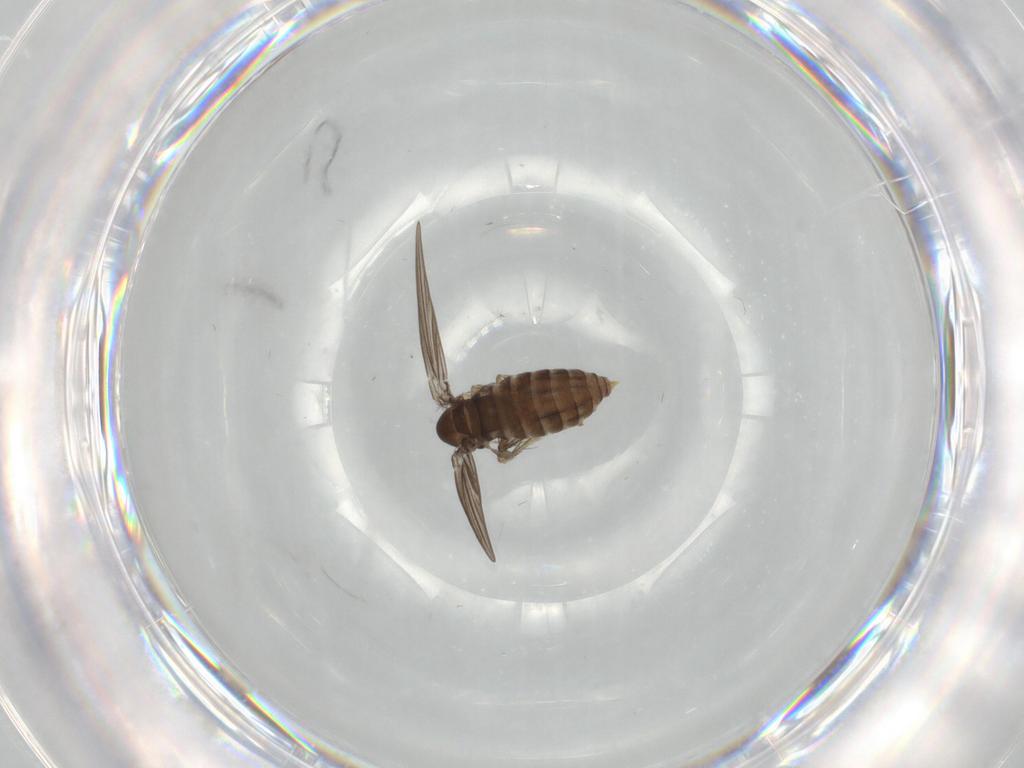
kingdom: Animalia
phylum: Arthropoda
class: Insecta
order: Diptera
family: Psychodidae
